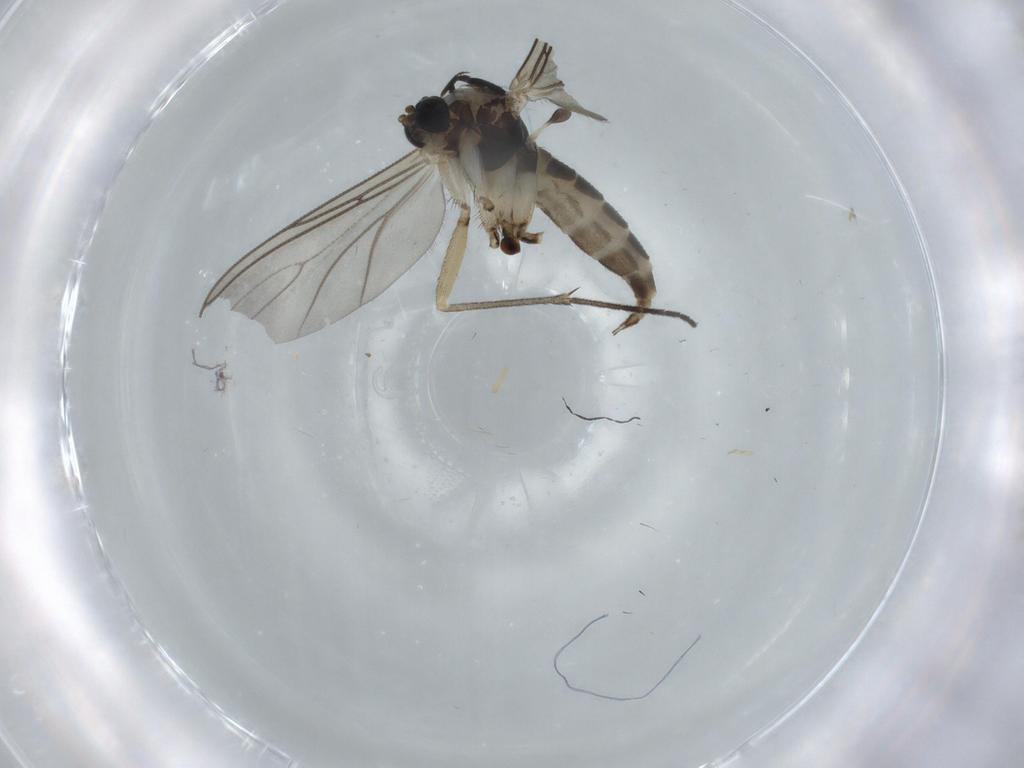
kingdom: Animalia
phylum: Arthropoda
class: Insecta
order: Diptera
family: Sciaridae
